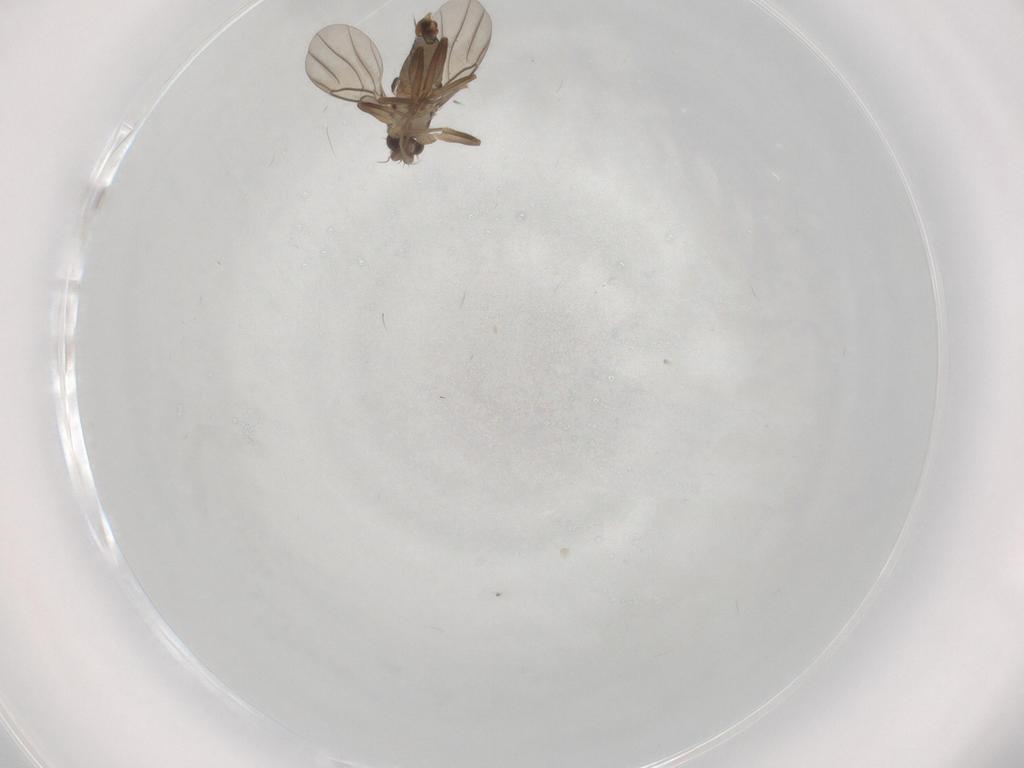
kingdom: Animalia
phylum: Arthropoda
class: Insecta
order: Diptera
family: Phoridae
